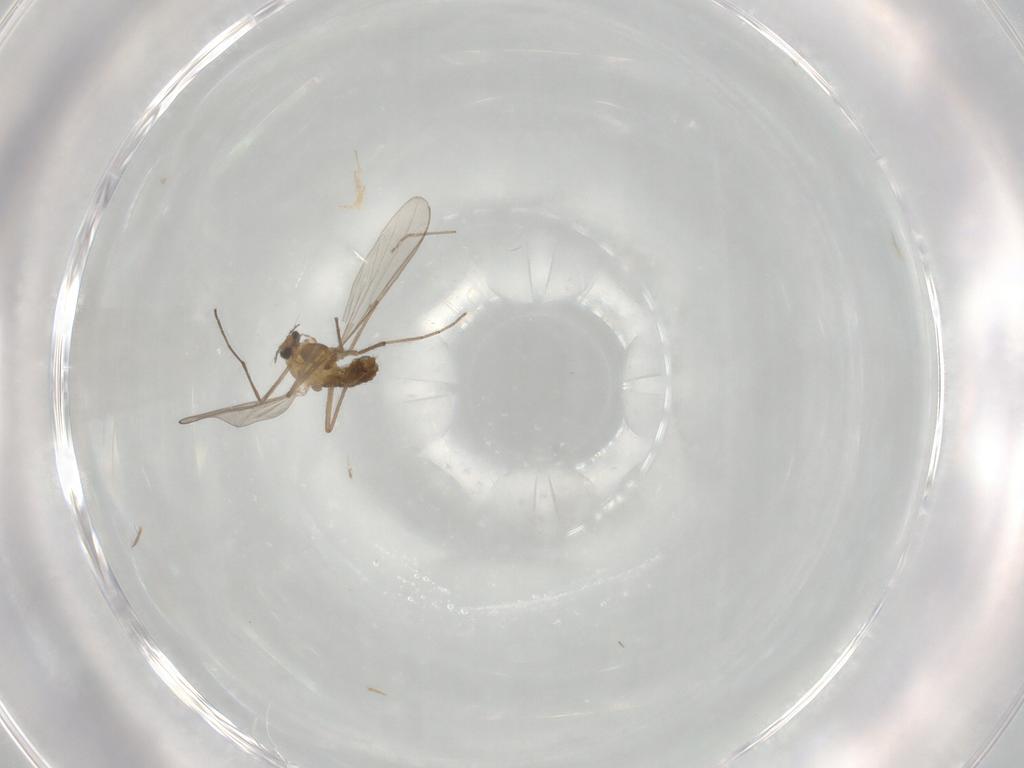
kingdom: Animalia
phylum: Arthropoda
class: Insecta
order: Diptera
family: Chironomidae
